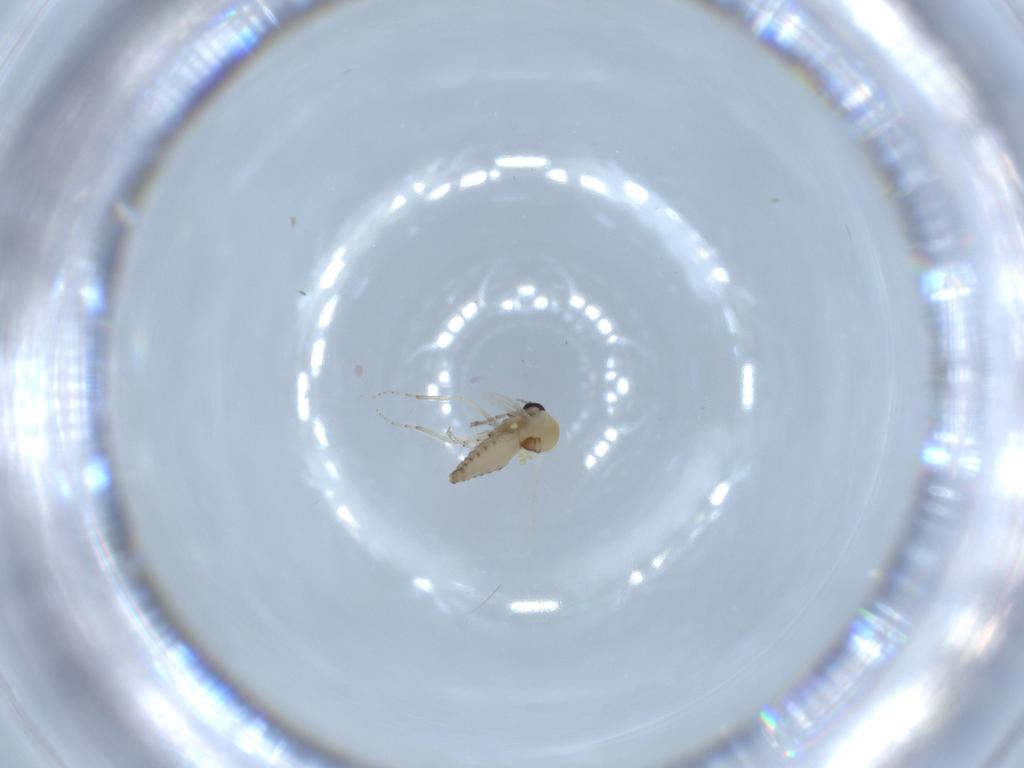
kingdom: Animalia
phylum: Arthropoda
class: Insecta
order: Diptera
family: Ceratopogonidae
